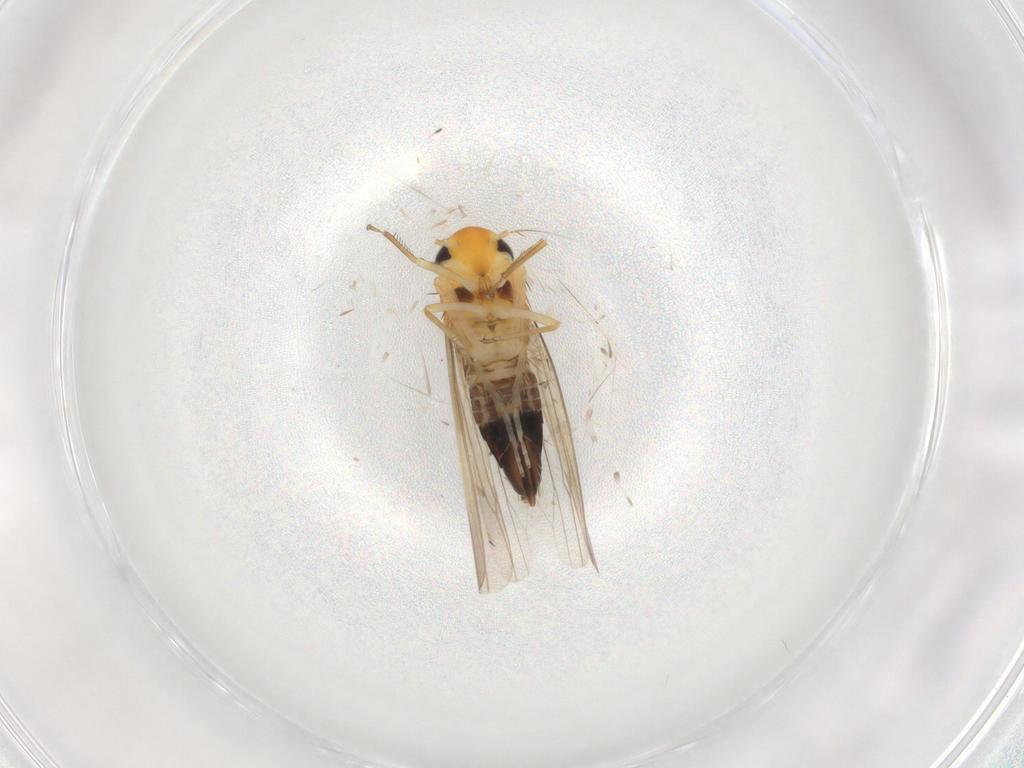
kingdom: Animalia
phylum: Arthropoda
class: Insecta
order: Hemiptera
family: Cicadellidae
